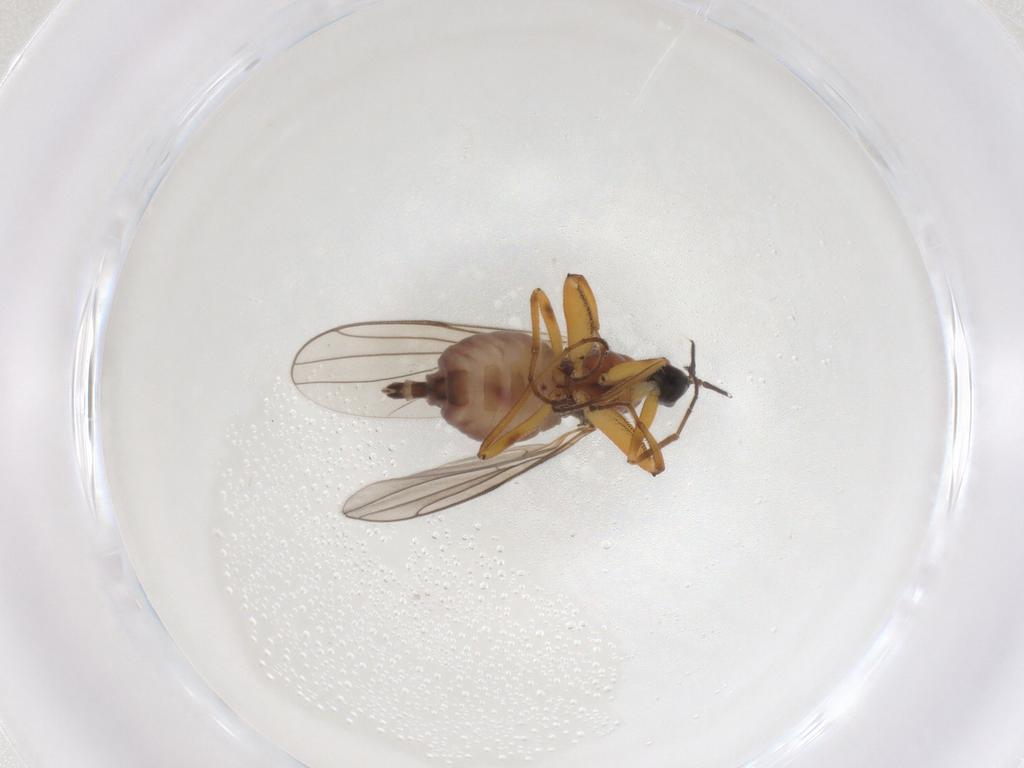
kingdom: Animalia
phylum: Arthropoda
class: Insecta
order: Diptera
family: Hybotidae
